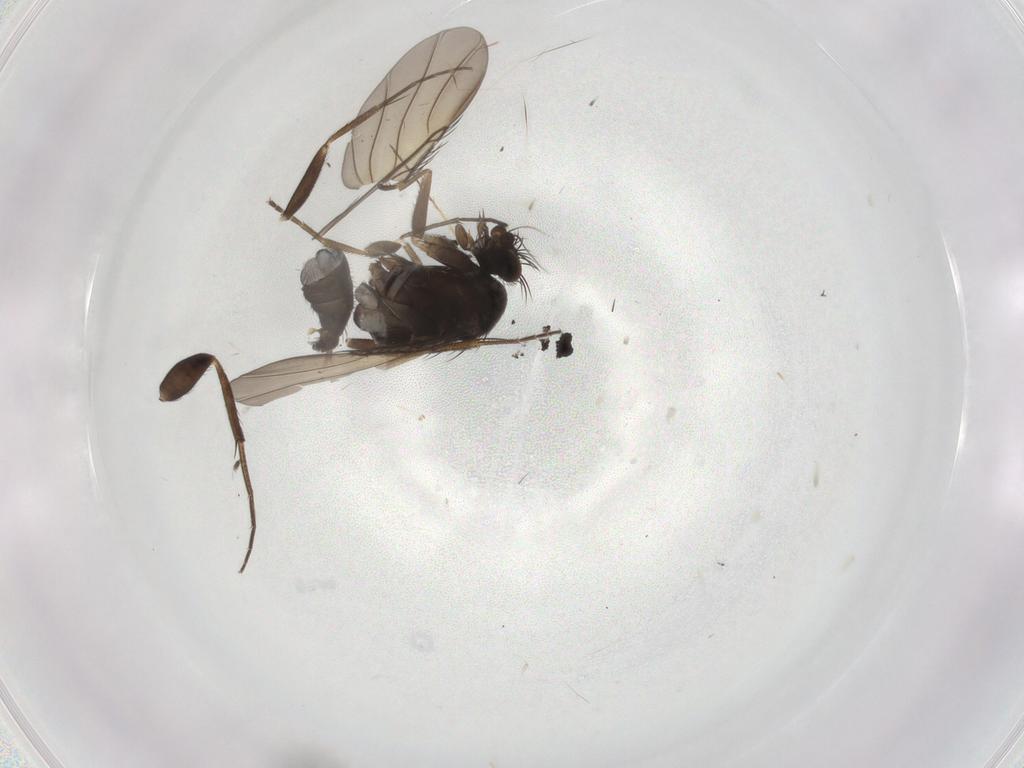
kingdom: Animalia
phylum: Arthropoda
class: Insecta
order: Diptera
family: Phoridae
